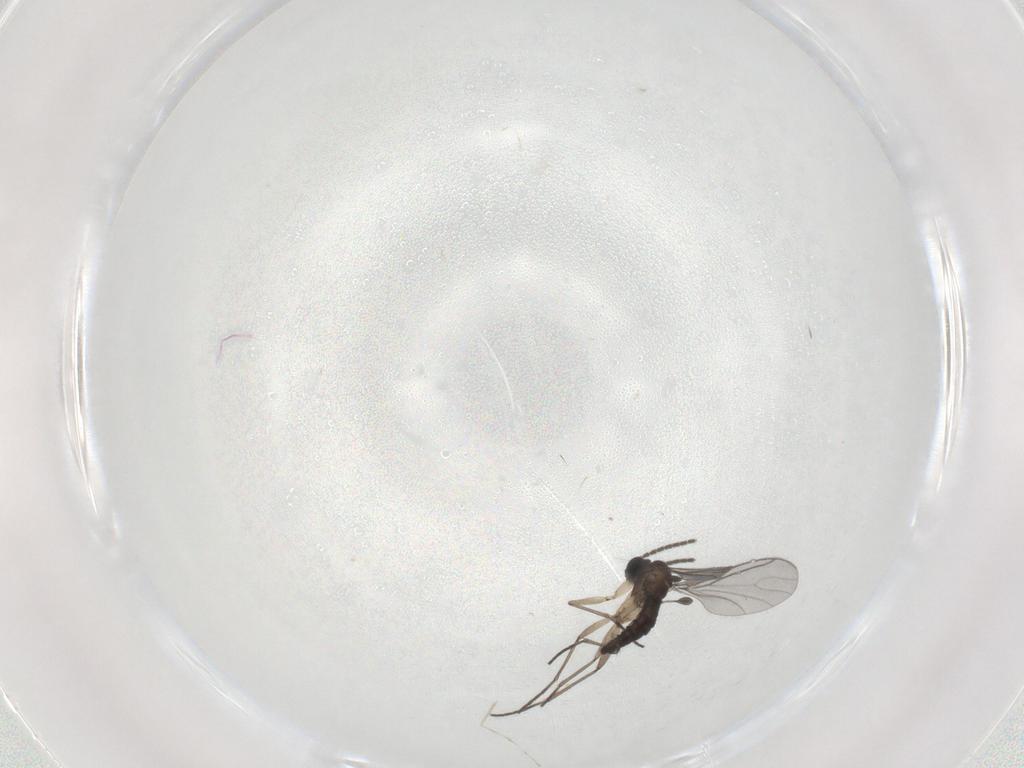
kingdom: Animalia
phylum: Arthropoda
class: Insecta
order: Diptera
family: Sciaridae
